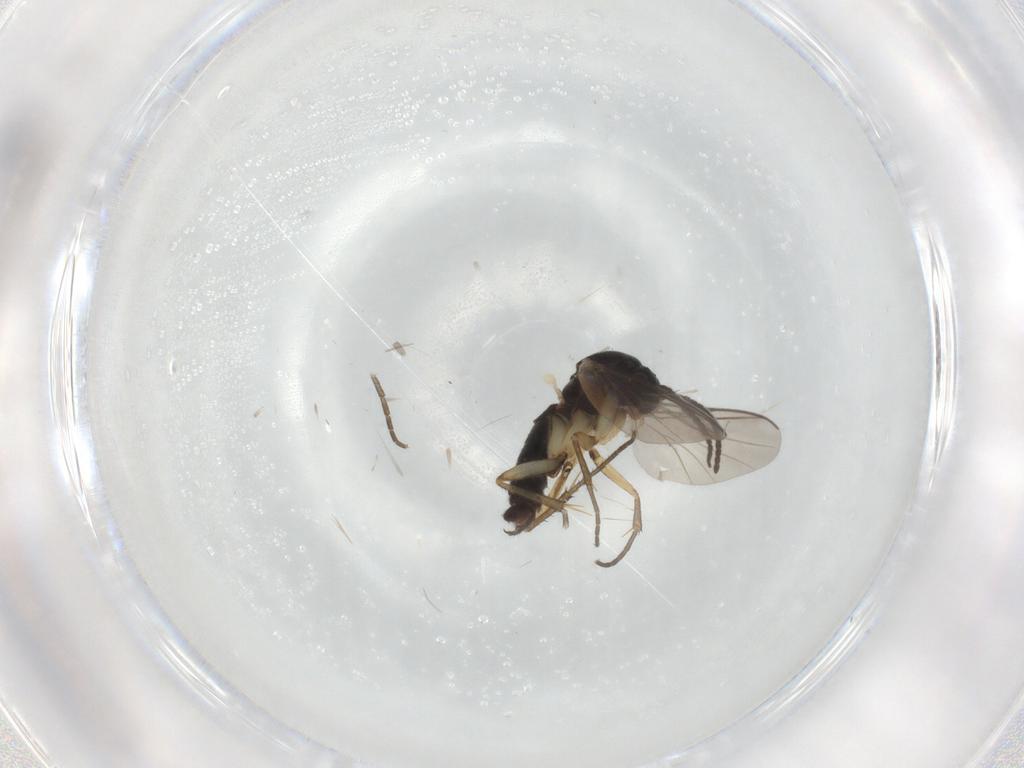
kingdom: Animalia
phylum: Arthropoda
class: Insecta
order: Diptera
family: Mycetophilidae
